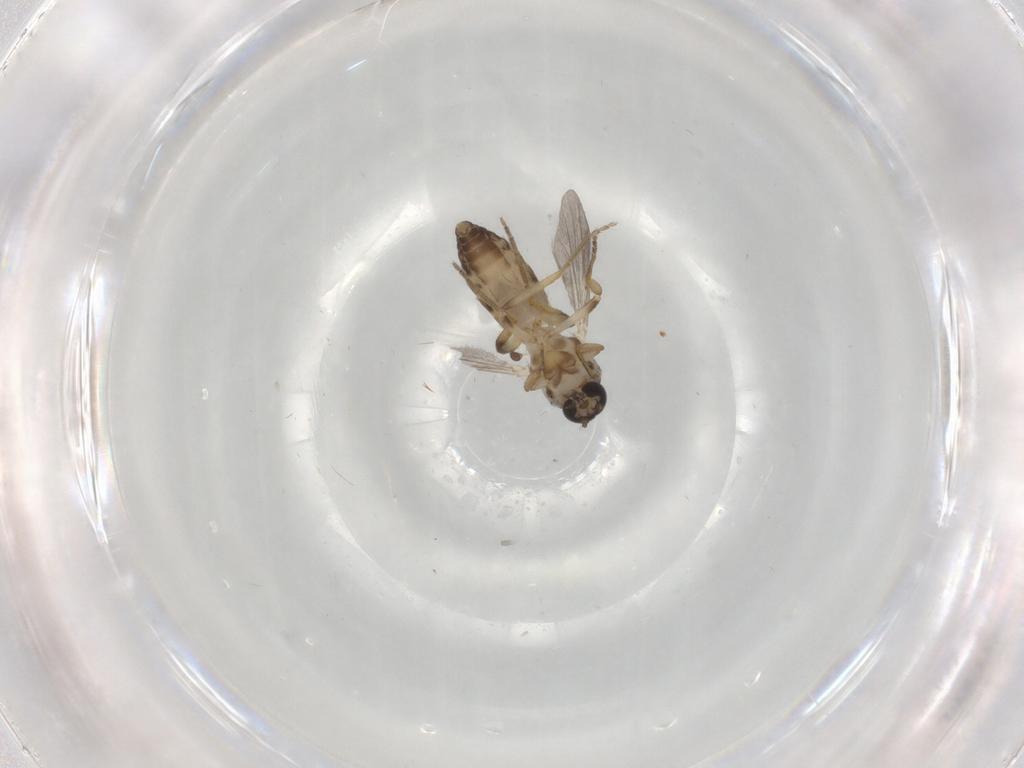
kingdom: Animalia
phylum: Arthropoda
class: Insecta
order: Diptera
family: Ceratopogonidae
